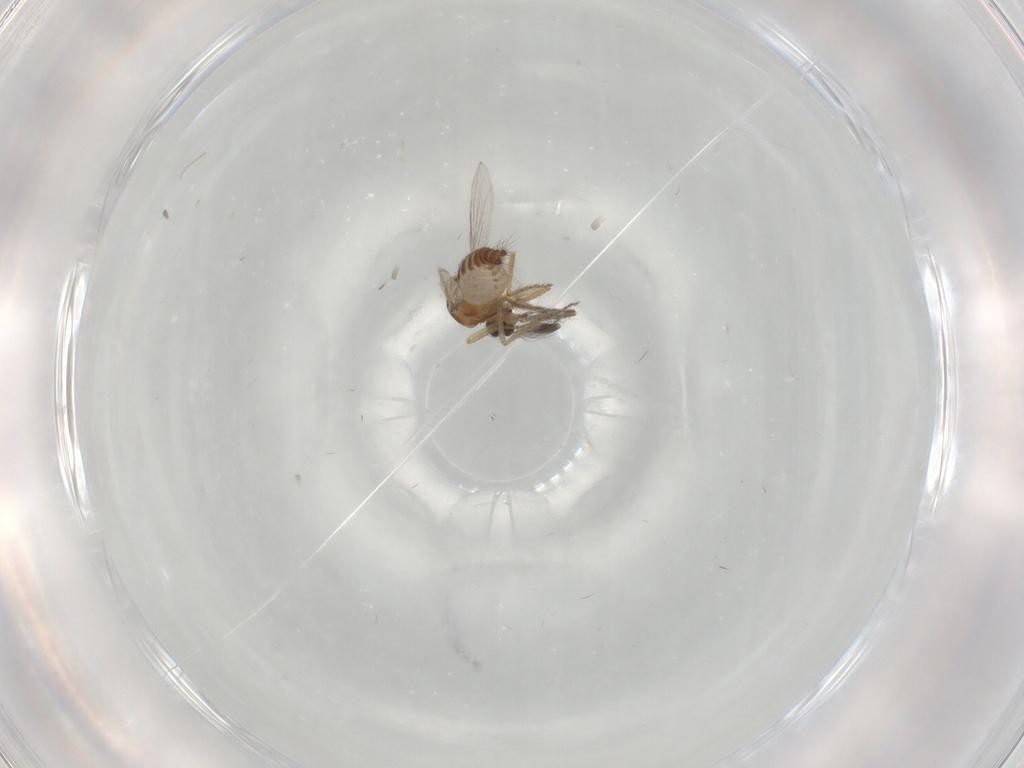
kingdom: Animalia
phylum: Arthropoda
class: Insecta
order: Diptera
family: Ceratopogonidae
